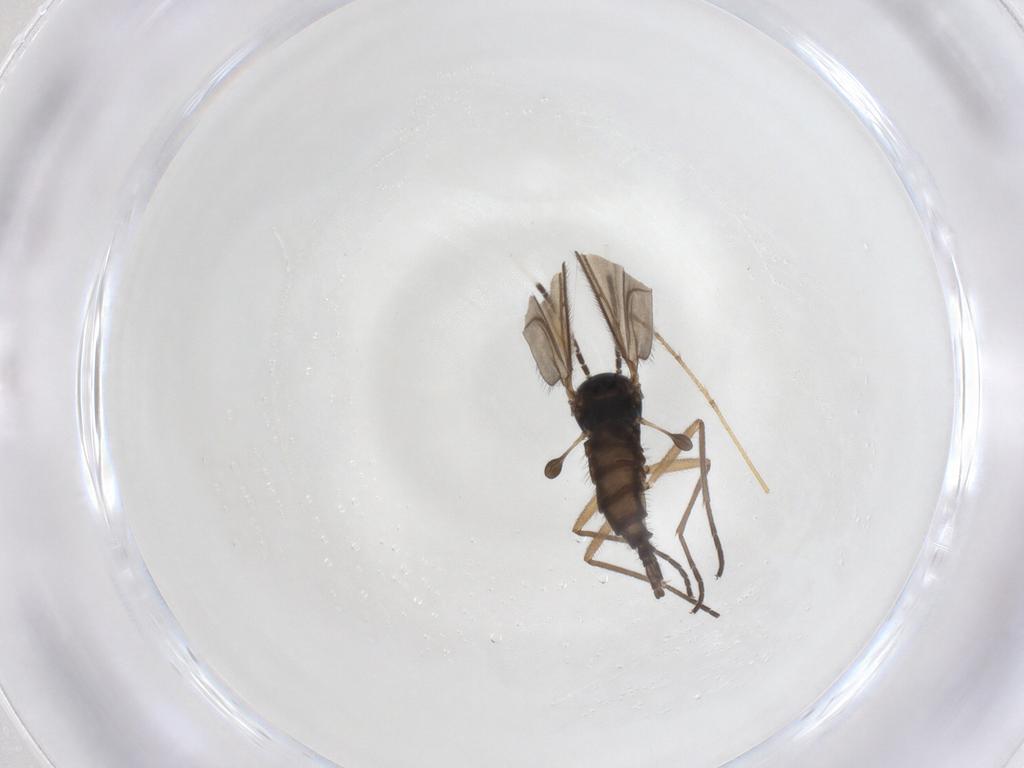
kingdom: Animalia
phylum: Arthropoda
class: Insecta
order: Diptera
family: Sciaridae
